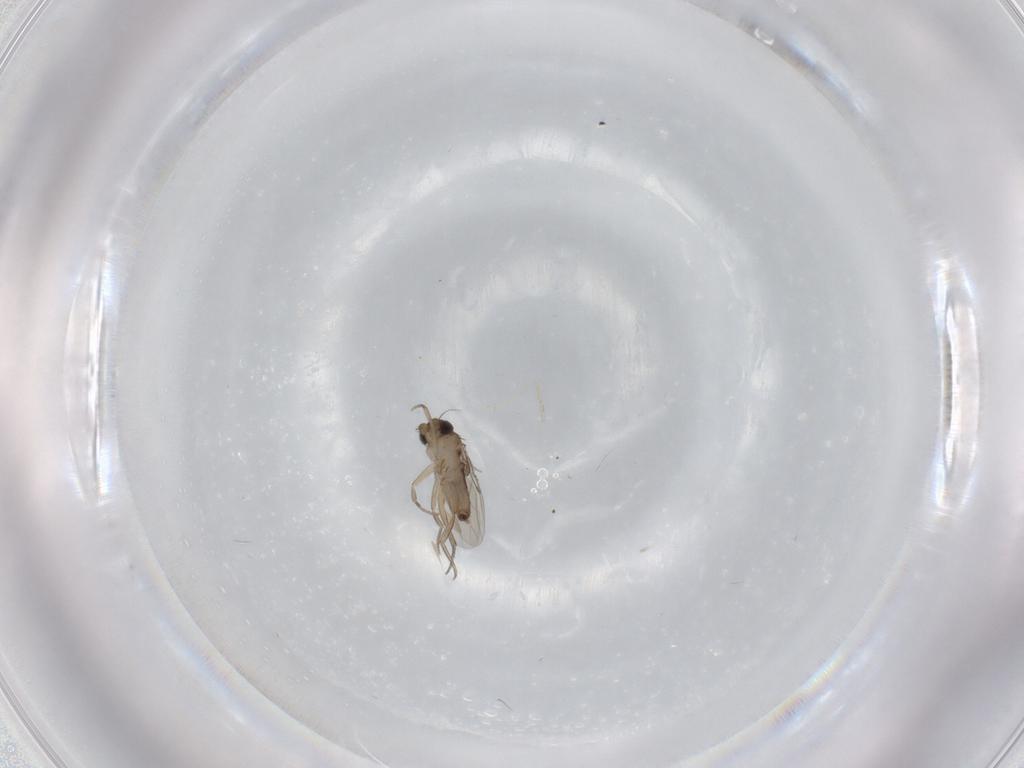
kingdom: Animalia
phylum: Arthropoda
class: Insecta
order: Diptera
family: Phoridae
